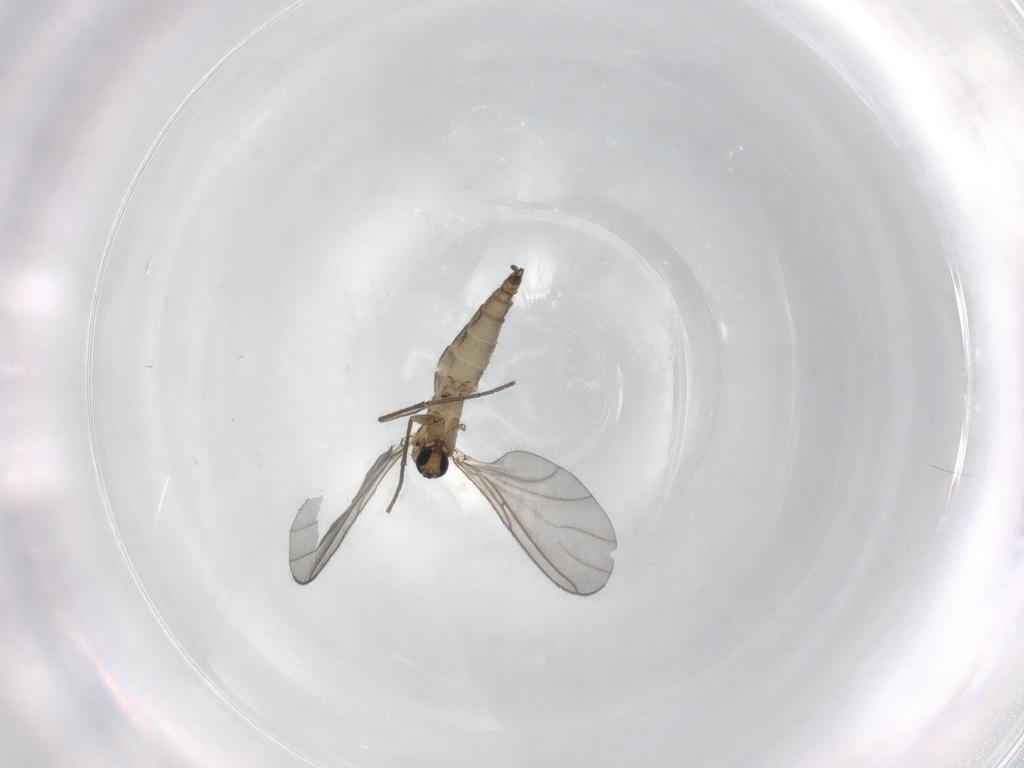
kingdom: Animalia
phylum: Arthropoda
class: Insecta
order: Diptera
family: Sciaridae
